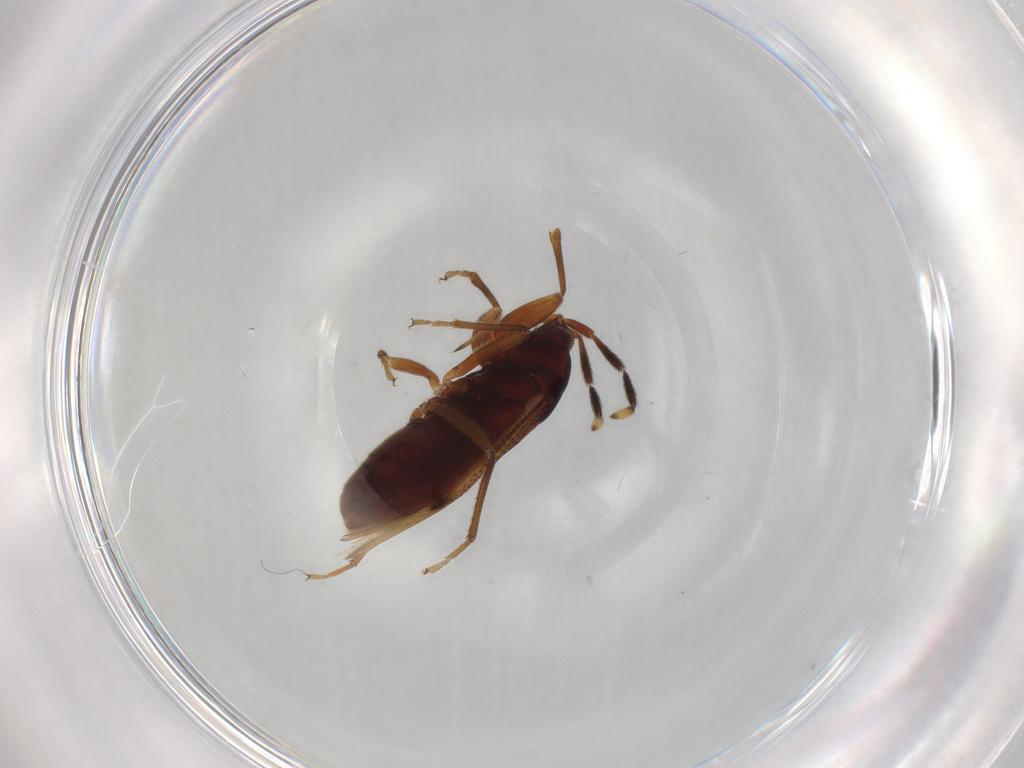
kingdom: Animalia
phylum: Arthropoda
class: Insecta
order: Hemiptera
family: Rhyparochromidae
